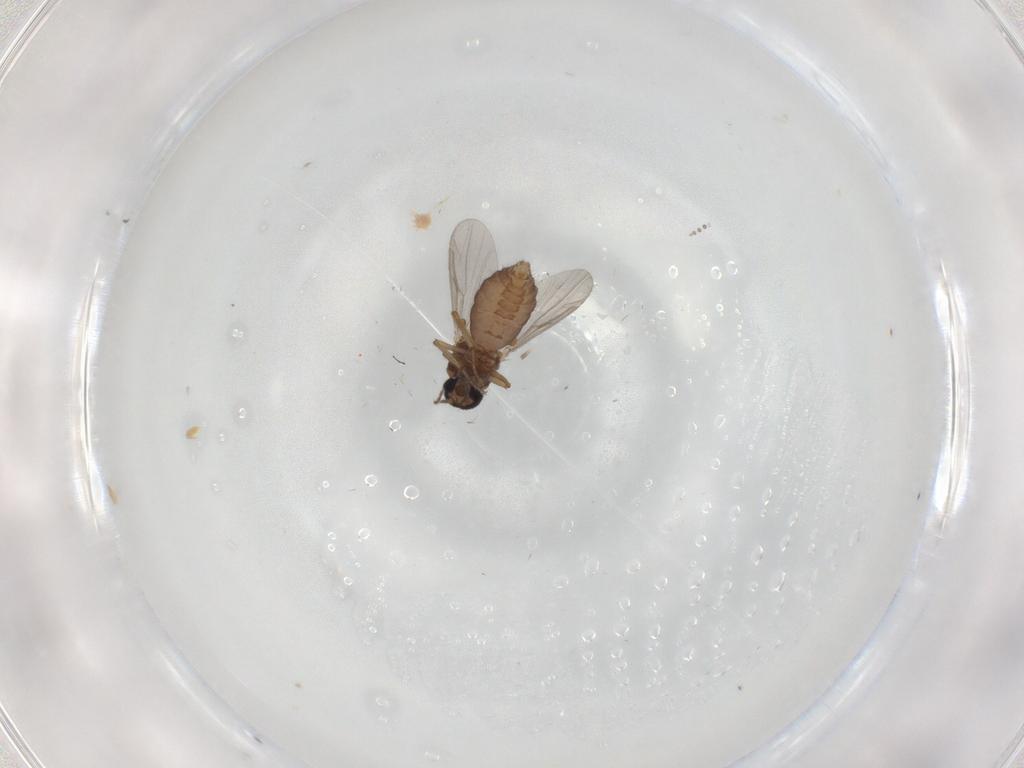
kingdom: Animalia
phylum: Arthropoda
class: Insecta
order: Diptera
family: Ceratopogonidae
